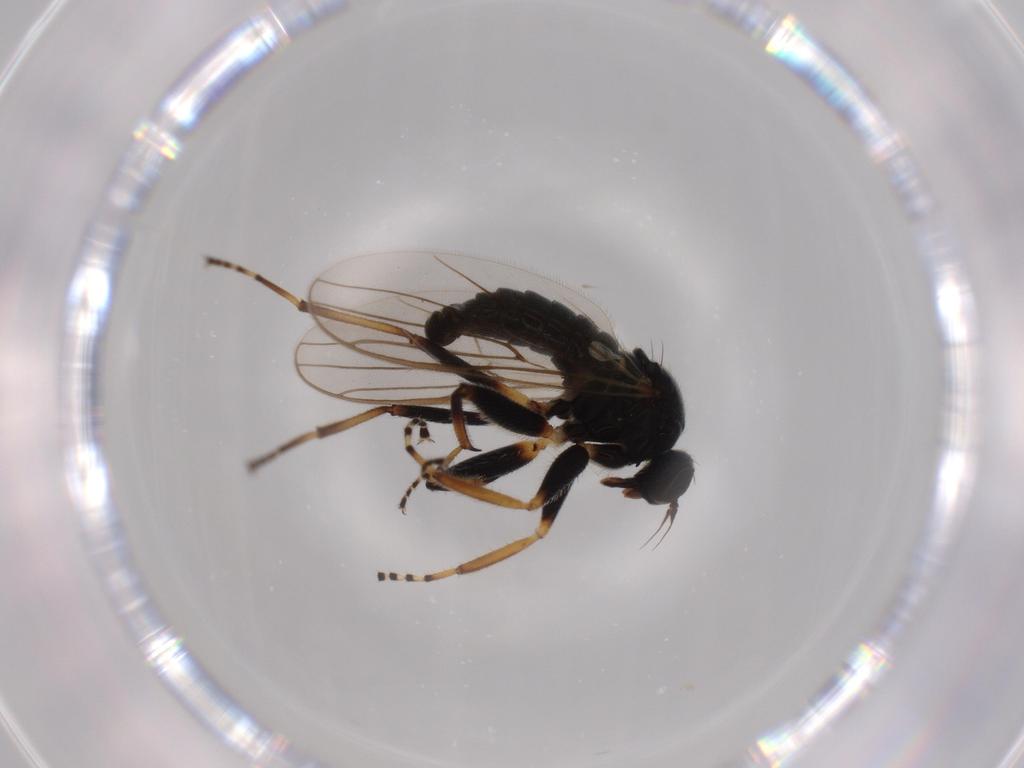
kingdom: Animalia
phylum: Arthropoda
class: Insecta
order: Diptera
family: Hybotidae
